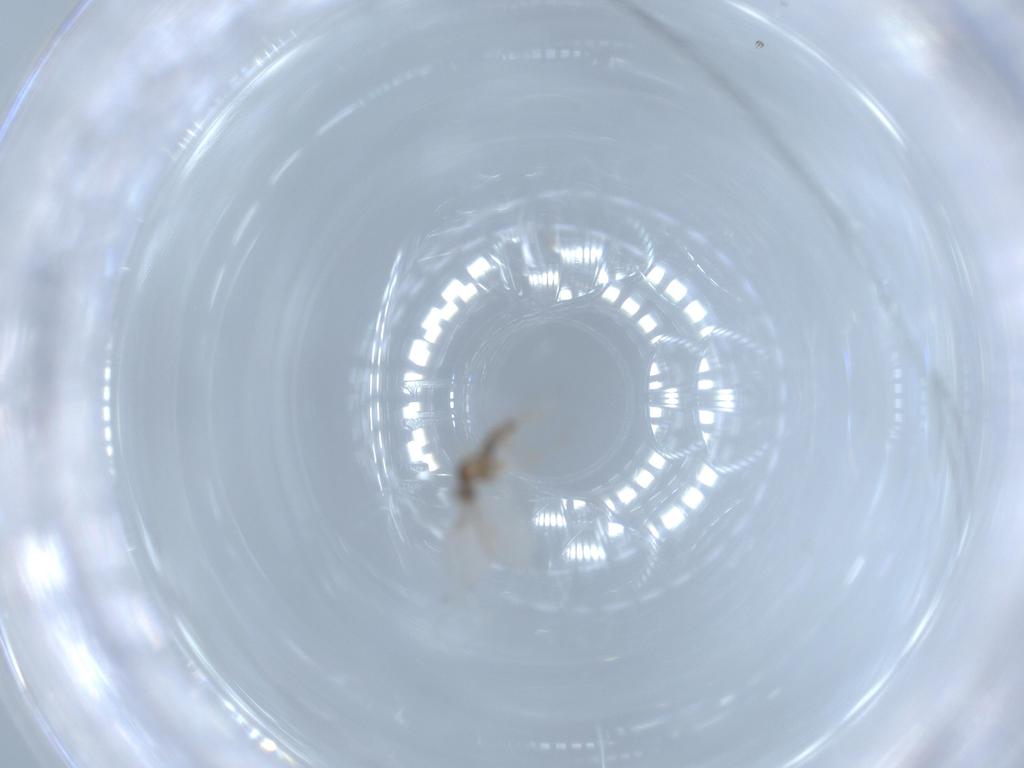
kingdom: Animalia
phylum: Arthropoda
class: Insecta
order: Diptera
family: Cecidomyiidae
